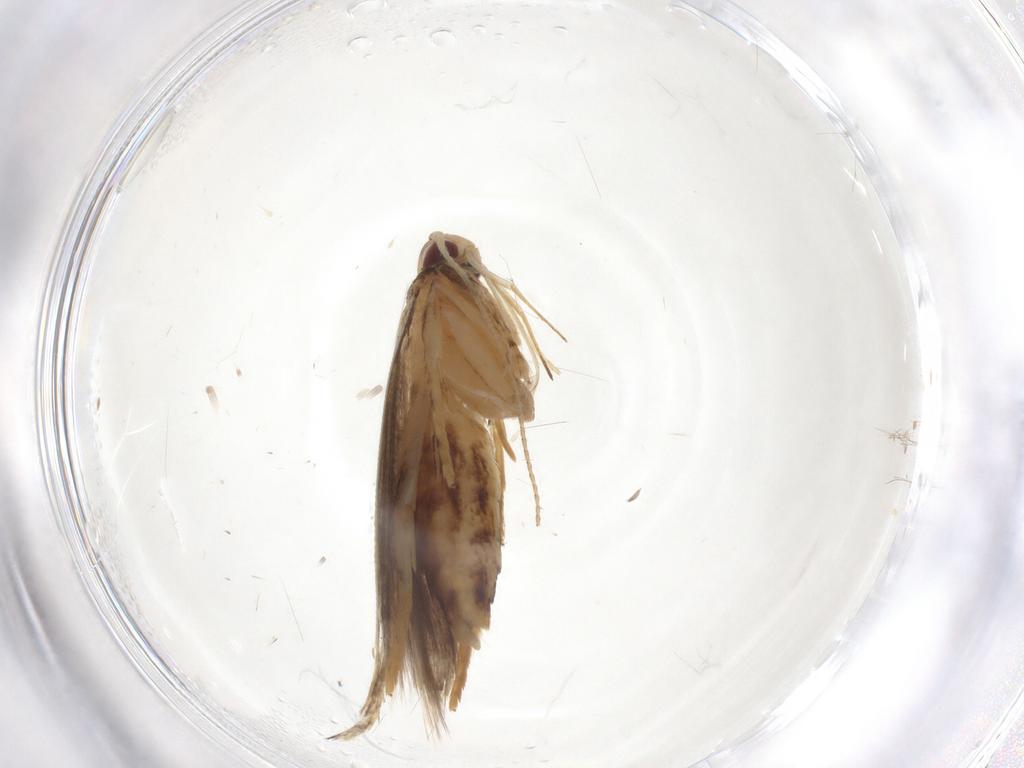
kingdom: Animalia
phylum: Arthropoda
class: Insecta
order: Lepidoptera
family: Cosmopterigidae
